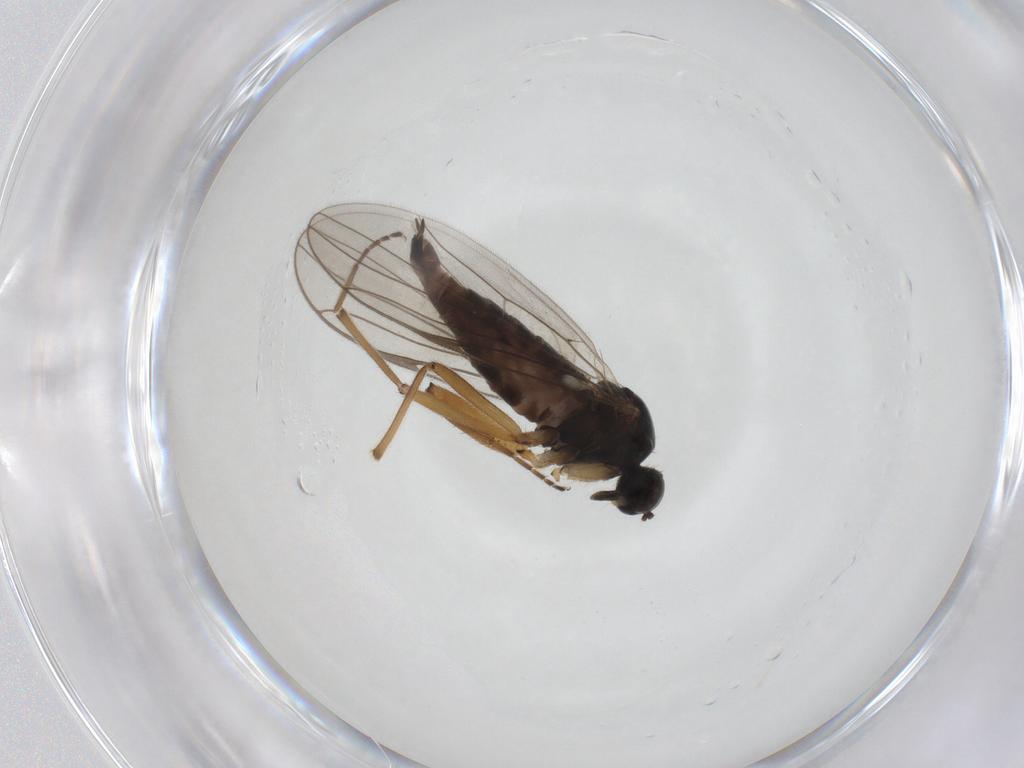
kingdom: Animalia
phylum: Arthropoda
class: Insecta
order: Diptera
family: Hybotidae
